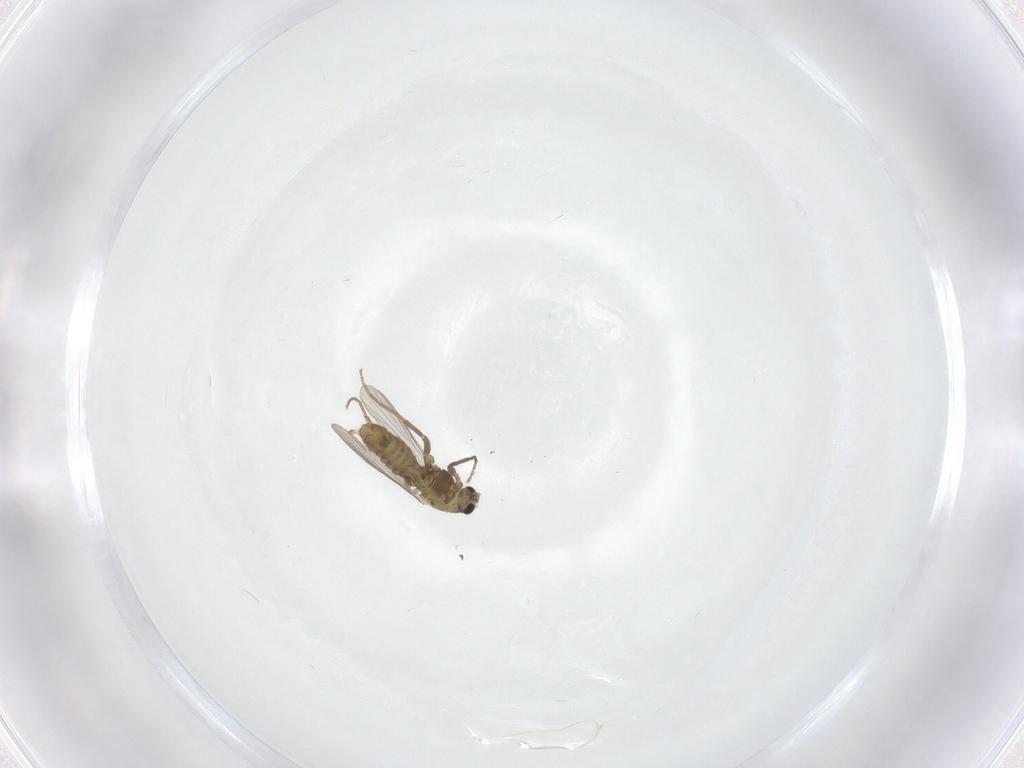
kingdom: Animalia
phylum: Arthropoda
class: Insecta
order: Diptera
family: Chironomidae
